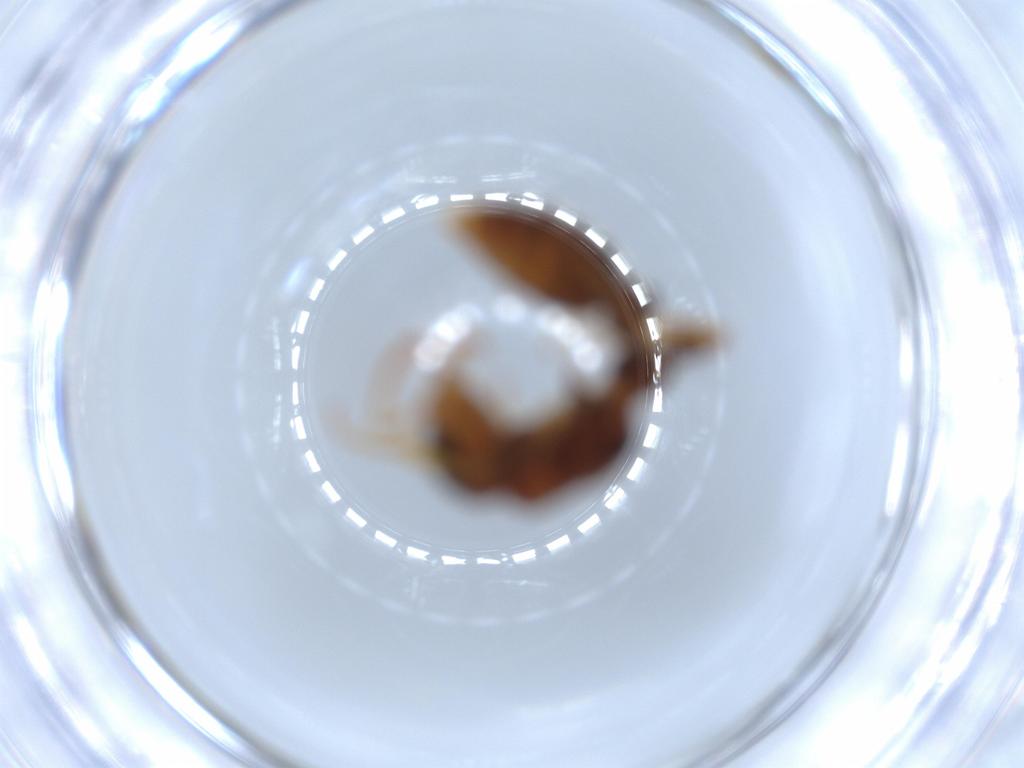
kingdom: Animalia
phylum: Arthropoda
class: Insecta
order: Hymenoptera
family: Formicidae
